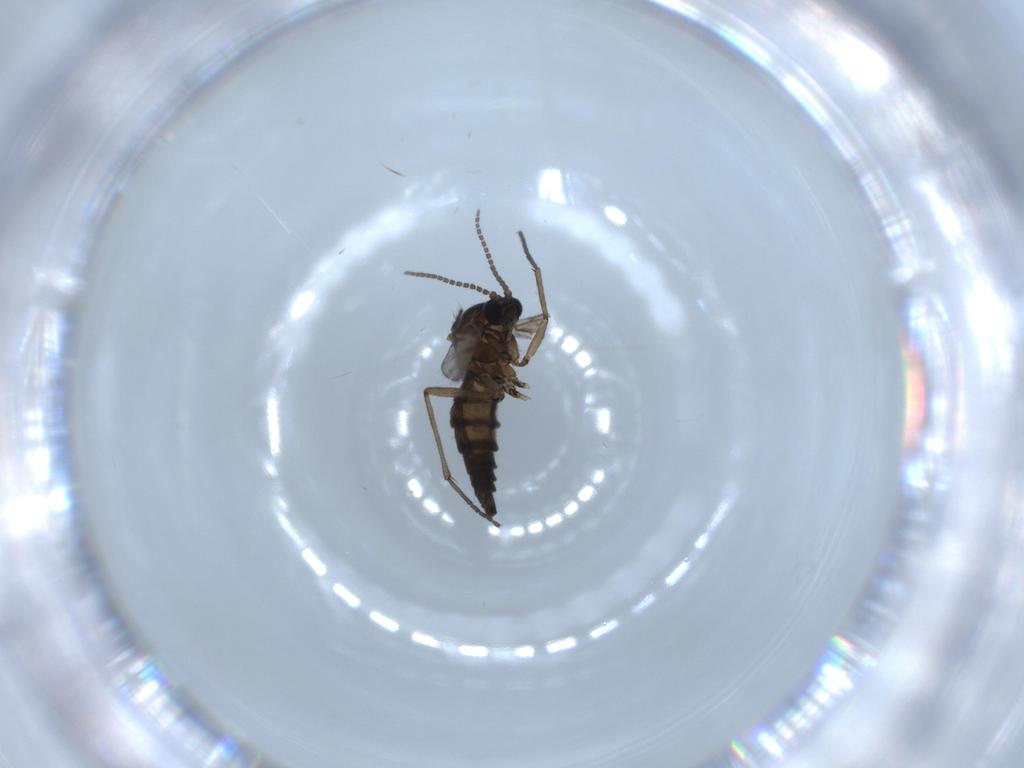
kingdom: Animalia
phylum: Arthropoda
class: Insecta
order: Diptera
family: Sciaridae
